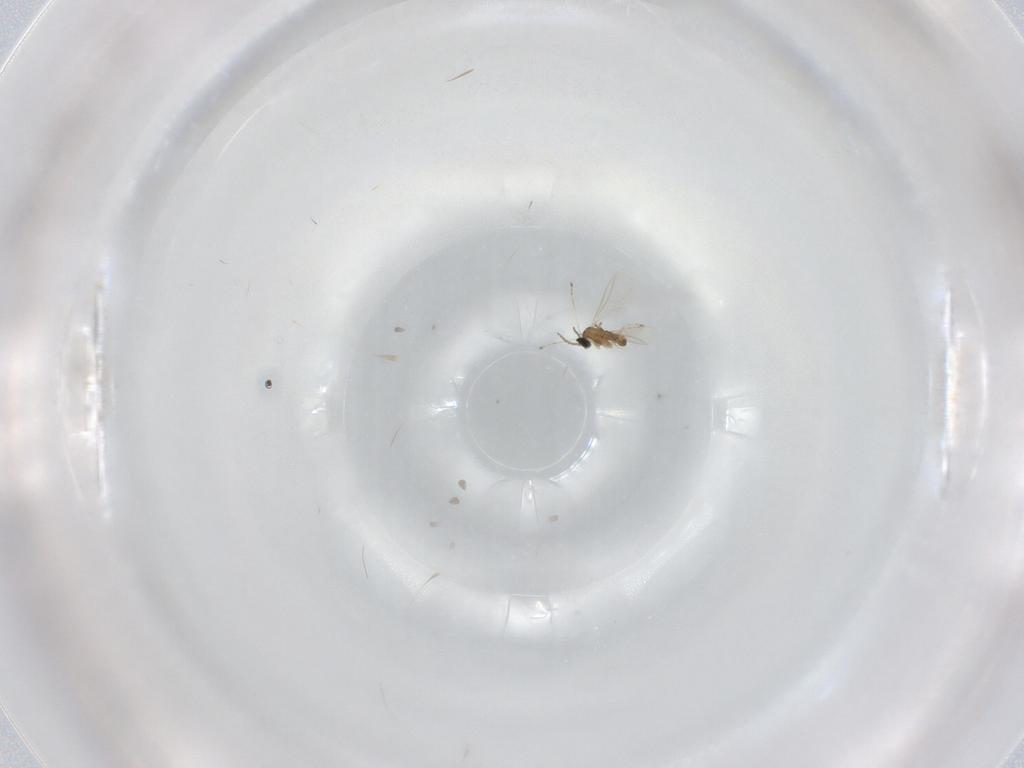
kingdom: Animalia
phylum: Arthropoda
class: Insecta
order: Diptera
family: Cecidomyiidae
